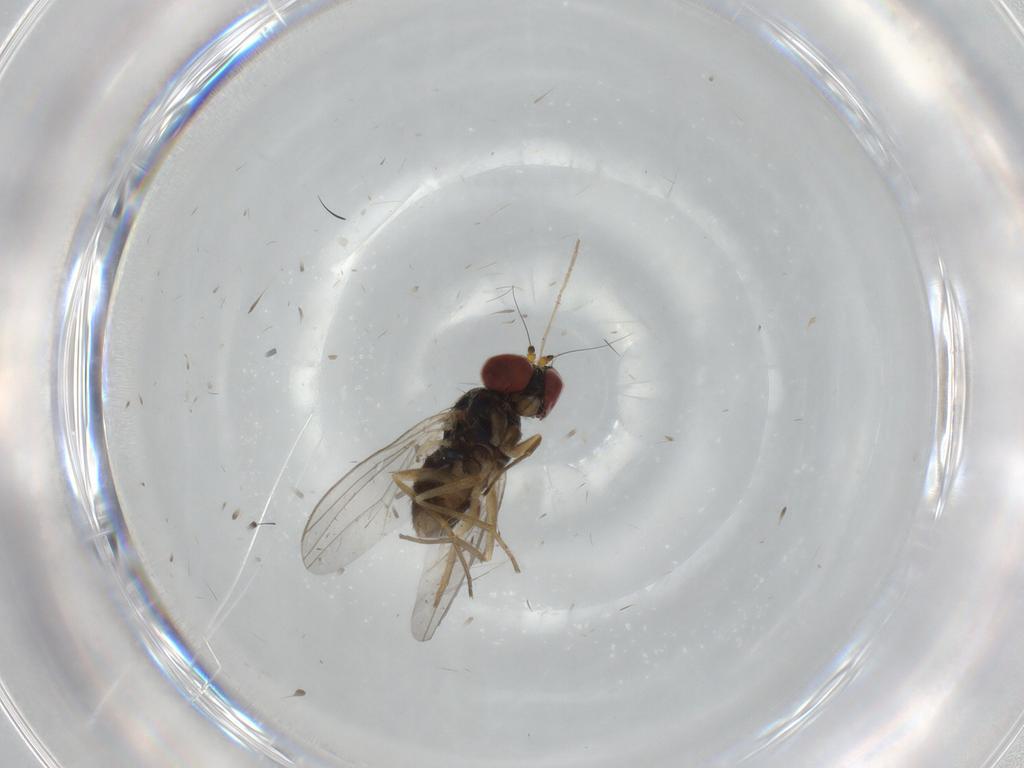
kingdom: Animalia
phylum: Arthropoda
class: Insecta
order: Diptera
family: Dolichopodidae
